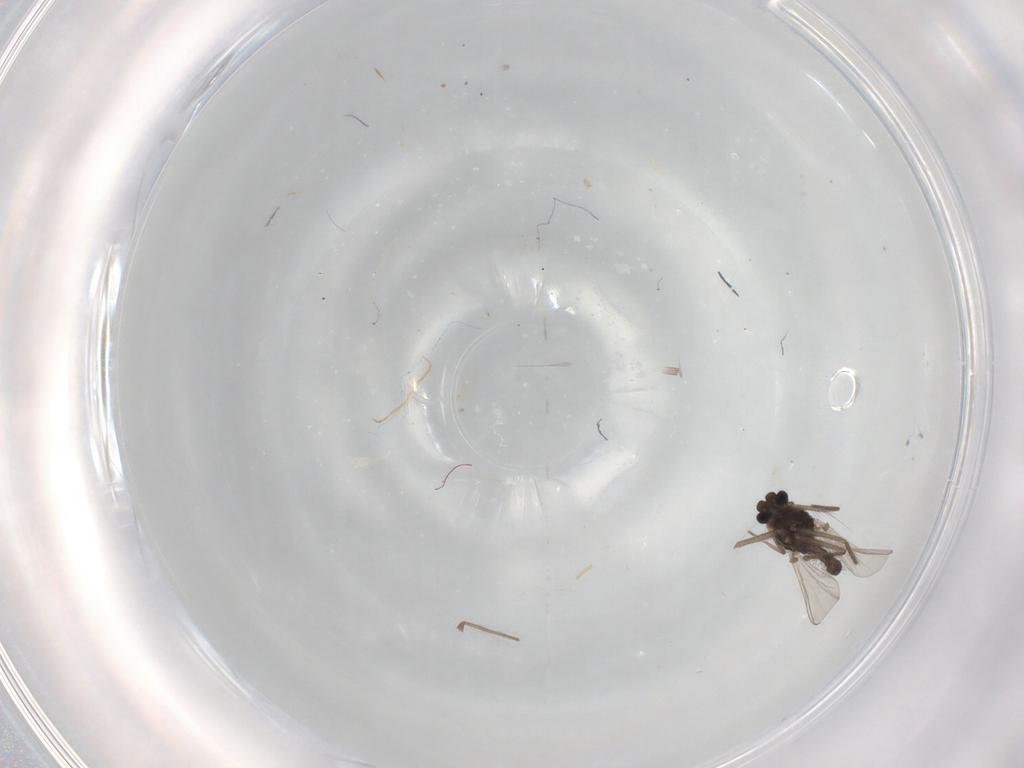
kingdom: Animalia
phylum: Arthropoda
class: Insecta
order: Diptera
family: Chironomidae
